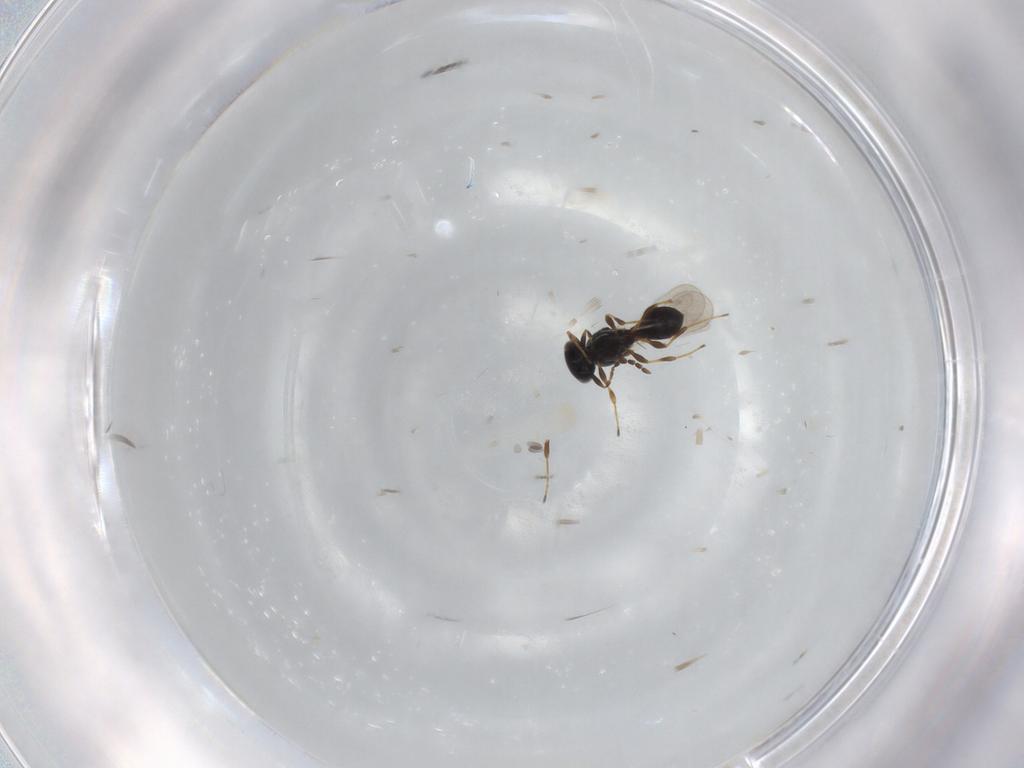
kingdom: Animalia
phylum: Arthropoda
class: Insecta
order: Hymenoptera
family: Platygastridae
